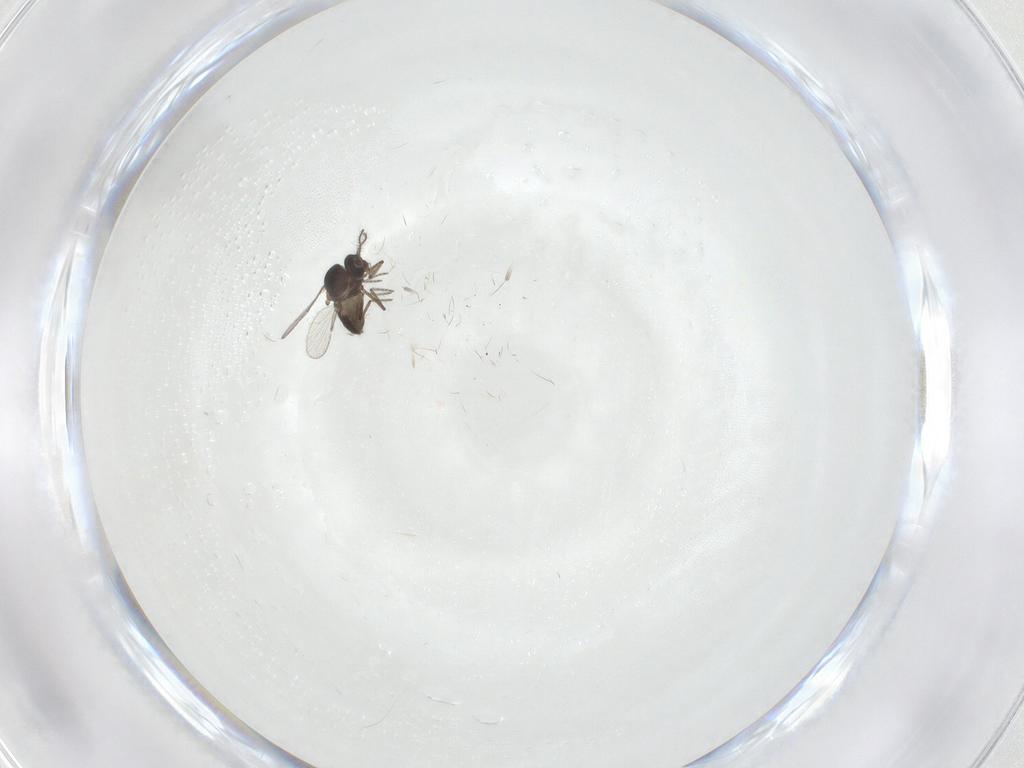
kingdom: Animalia
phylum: Arthropoda
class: Insecta
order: Diptera
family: Ceratopogonidae
